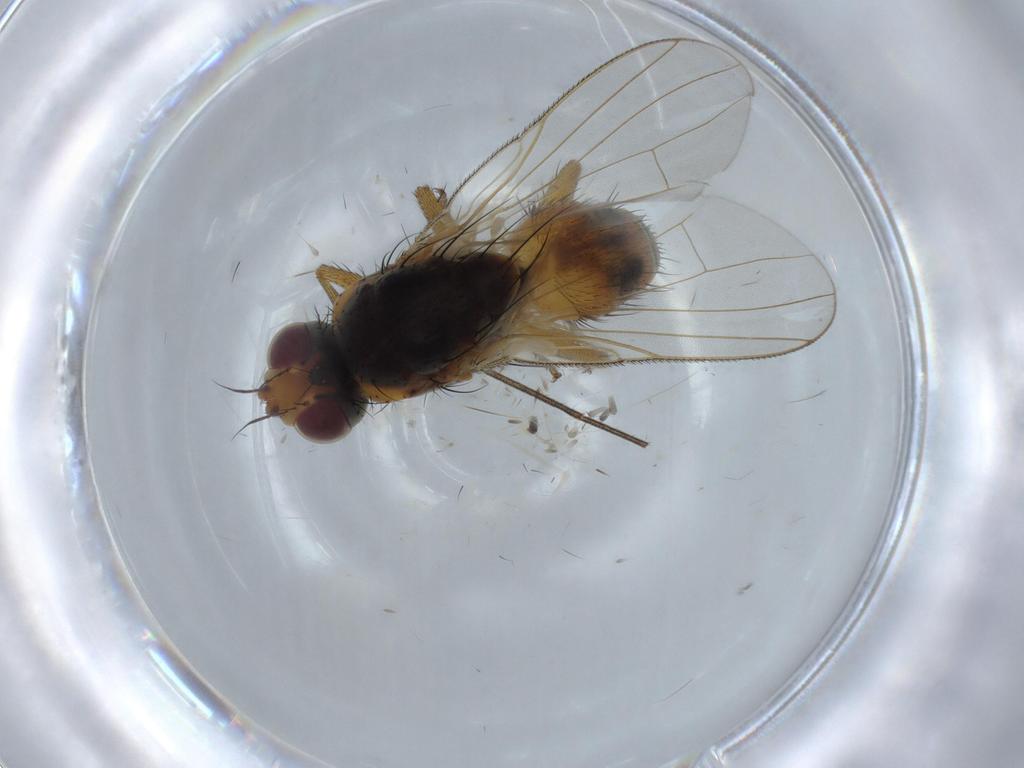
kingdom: Animalia
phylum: Arthropoda
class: Insecta
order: Diptera
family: Muscidae
